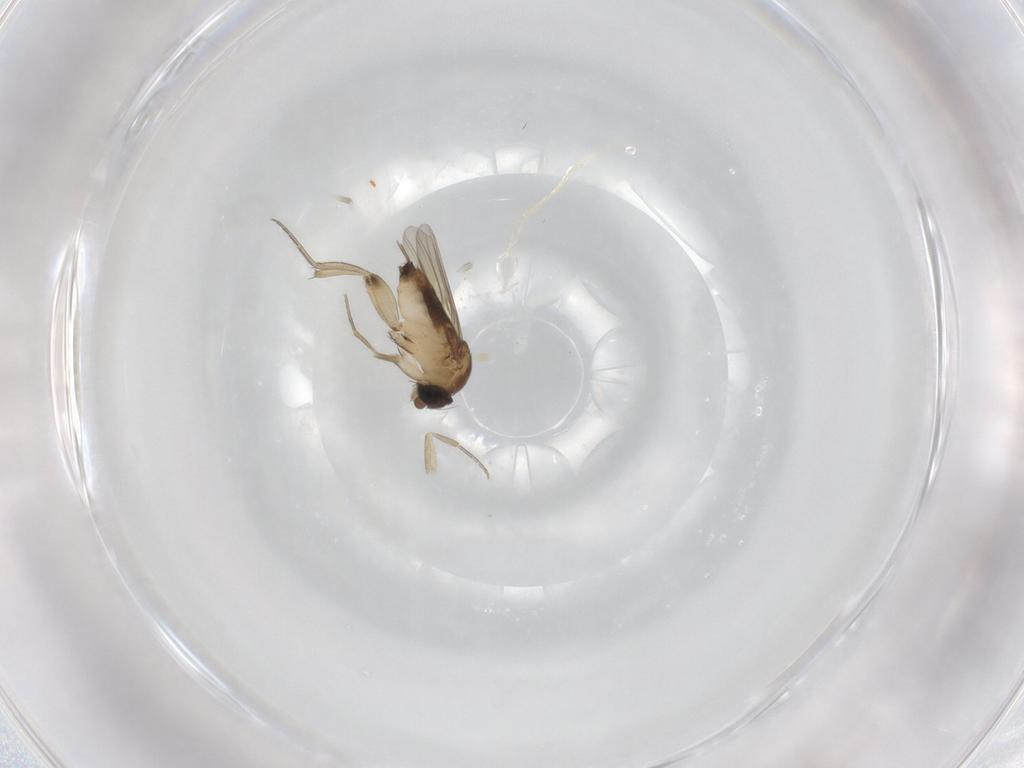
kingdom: Animalia
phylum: Arthropoda
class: Insecta
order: Diptera
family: Phoridae
